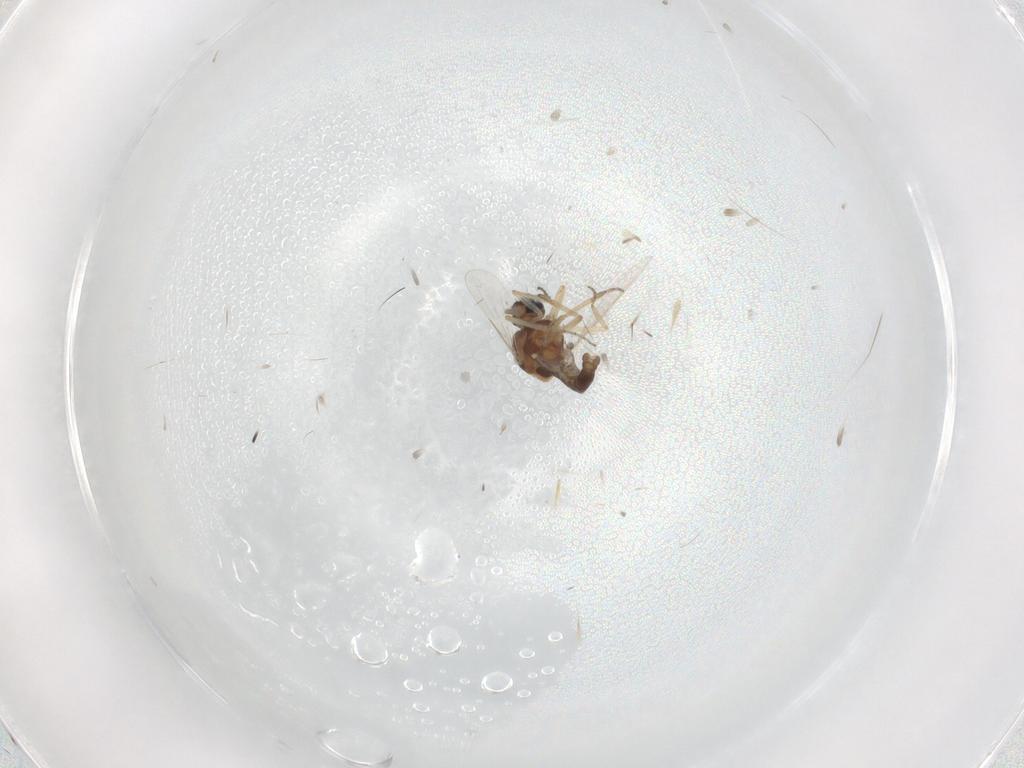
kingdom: Animalia
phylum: Arthropoda
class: Insecta
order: Diptera
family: Ceratopogonidae
